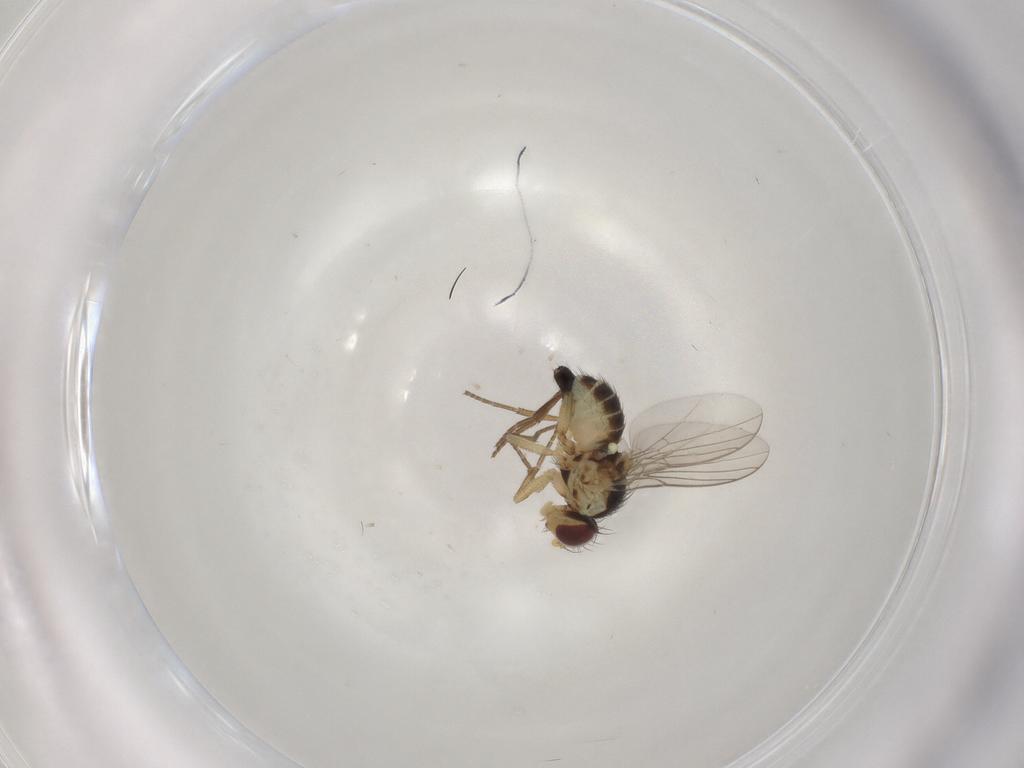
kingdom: Animalia
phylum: Arthropoda
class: Insecta
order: Diptera
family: Agromyzidae
